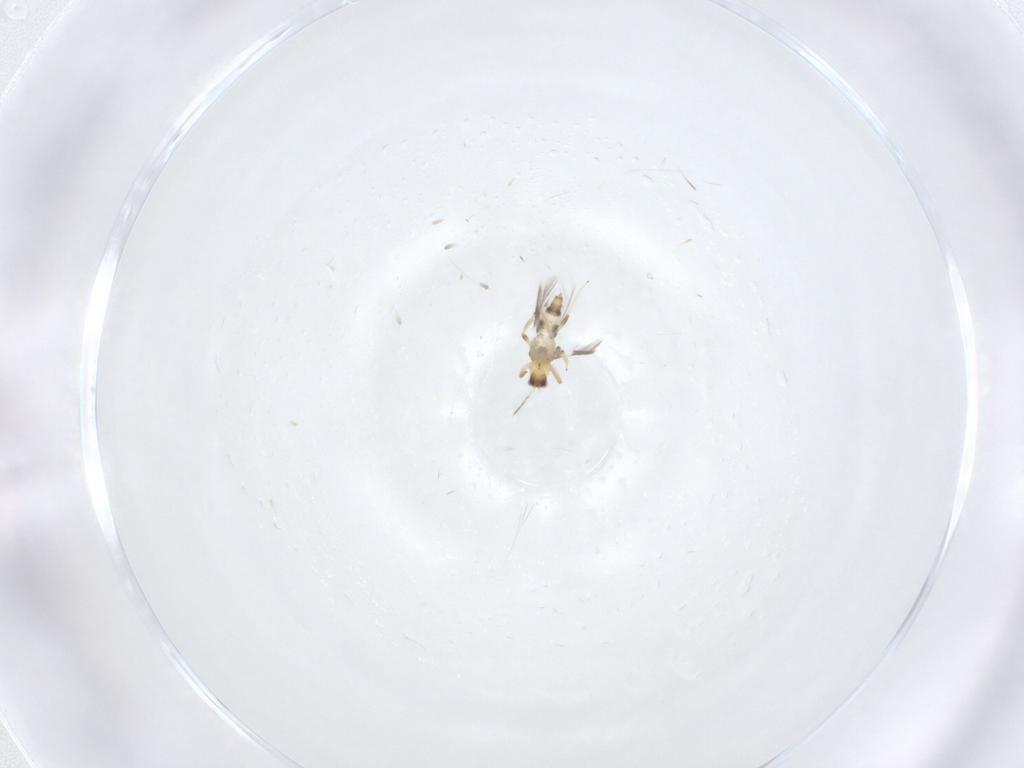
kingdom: Animalia
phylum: Arthropoda
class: Insecta
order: Thysanoptera
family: Thripidae
